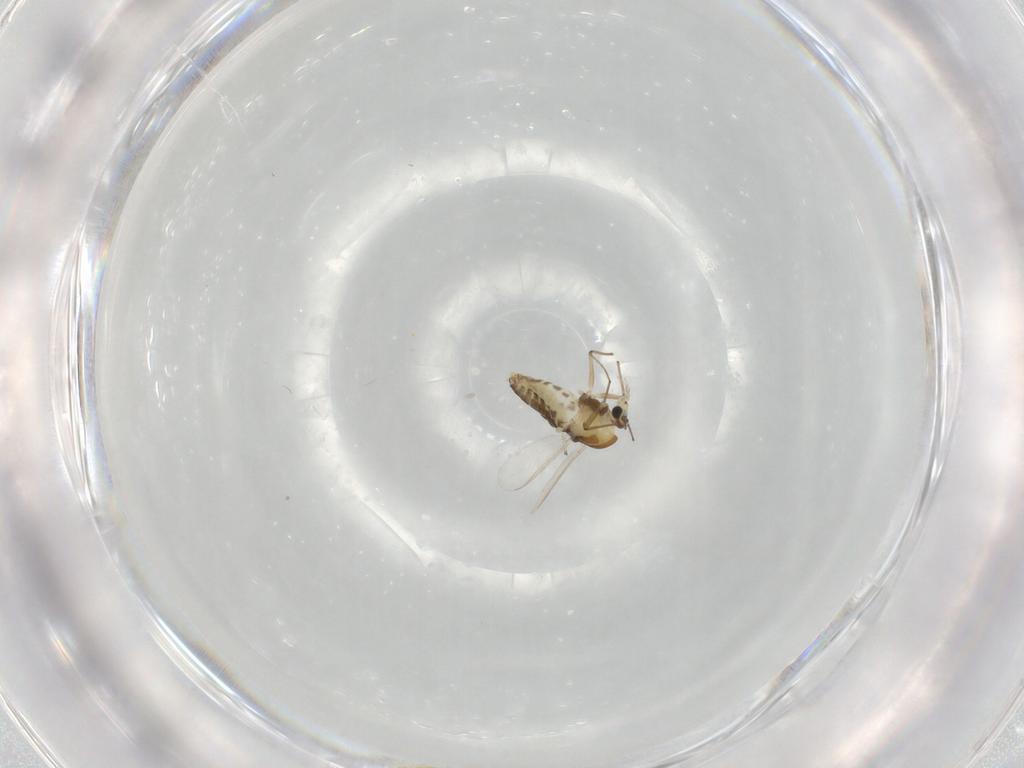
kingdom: Animalia
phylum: Arthropoda
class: Insecta
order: Diptera
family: Chironomidae
